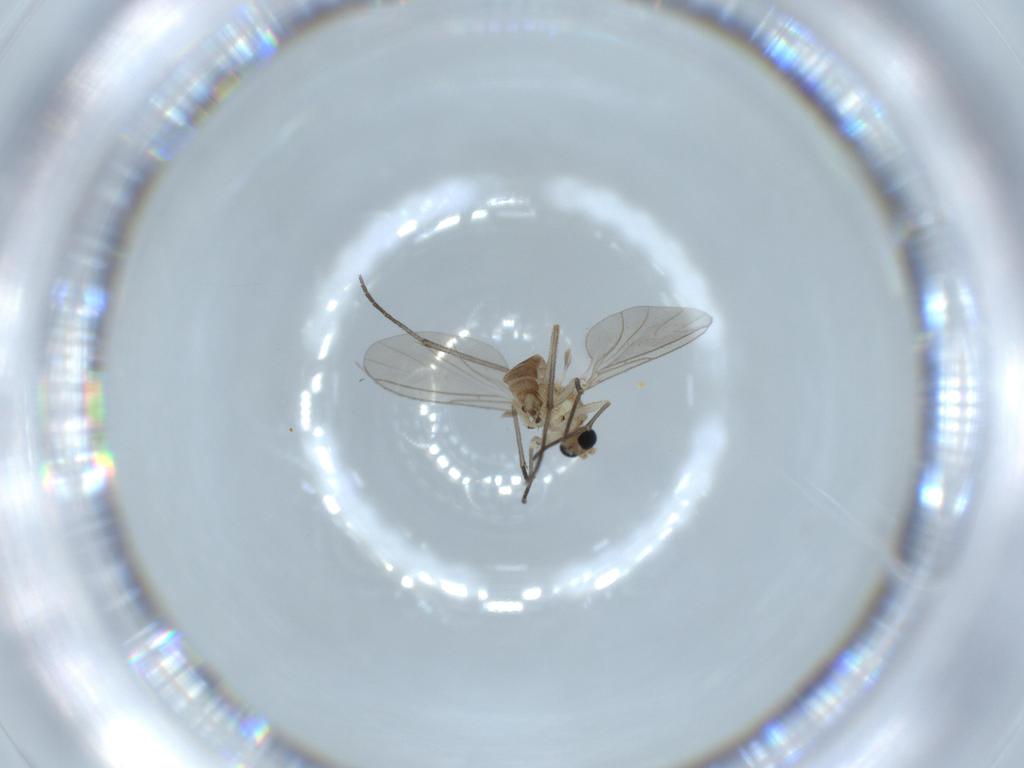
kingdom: Animalia
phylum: Arthropoda
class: Insecta
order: Diptera
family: Sciaridae
